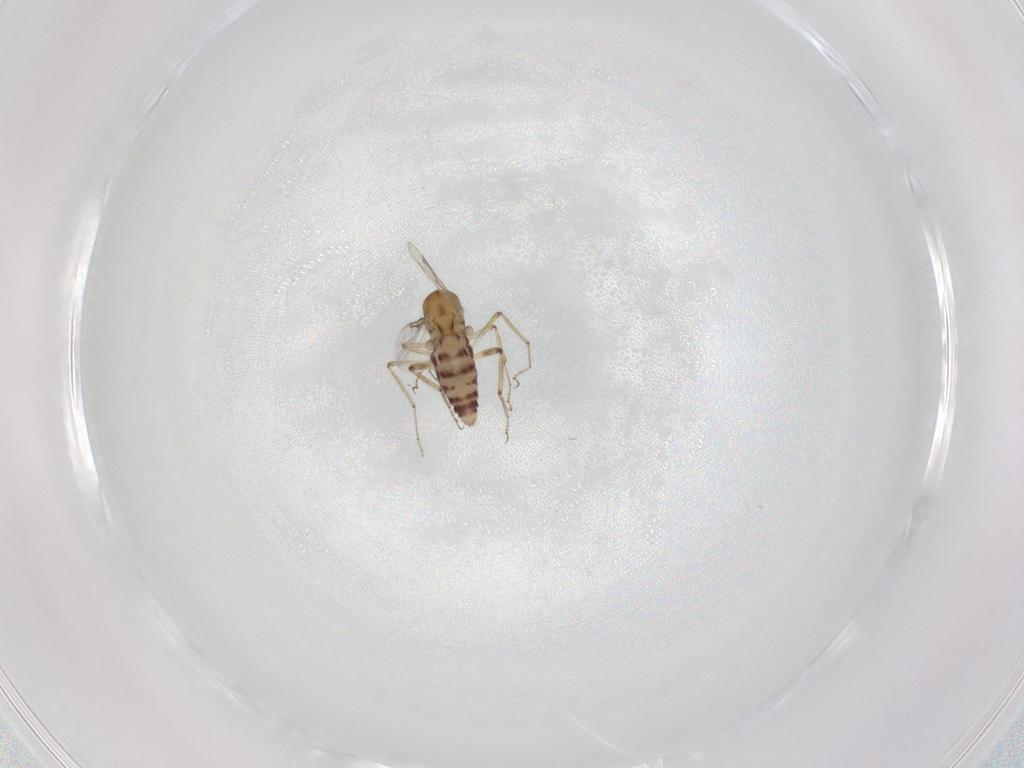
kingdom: Animalia
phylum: Arthropoda
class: Insecta
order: Diptera
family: Ceratopogonidae
